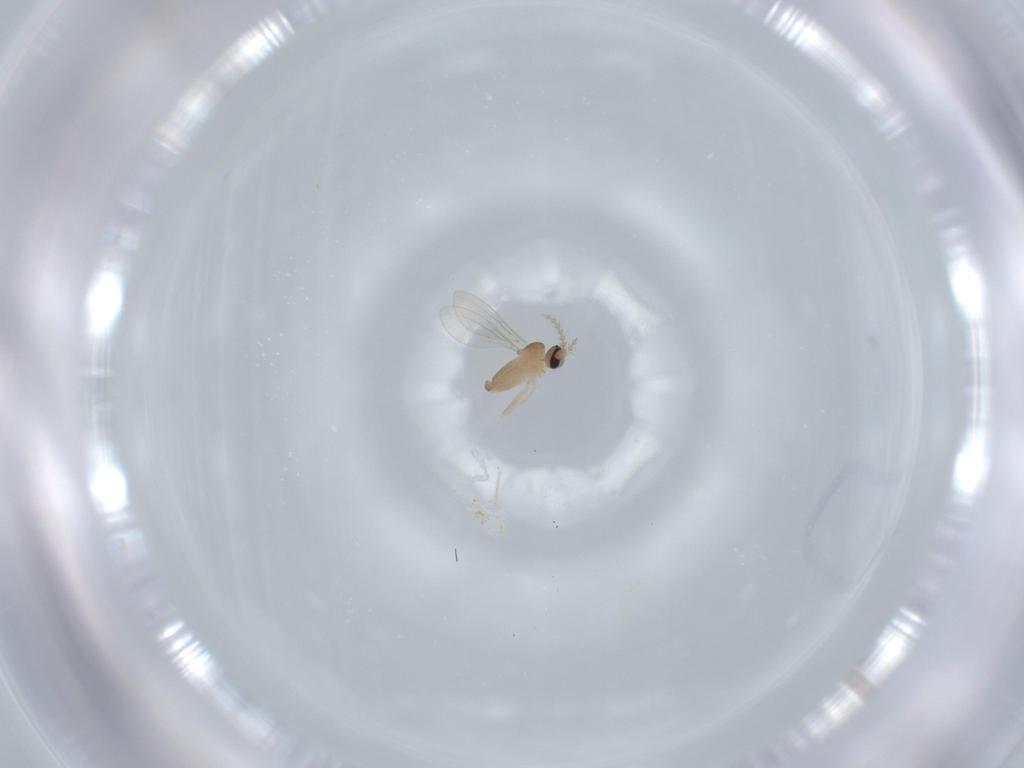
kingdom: Animalia
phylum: Arthropoda
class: Insecta
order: Diptera
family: Cecidomyiidae
